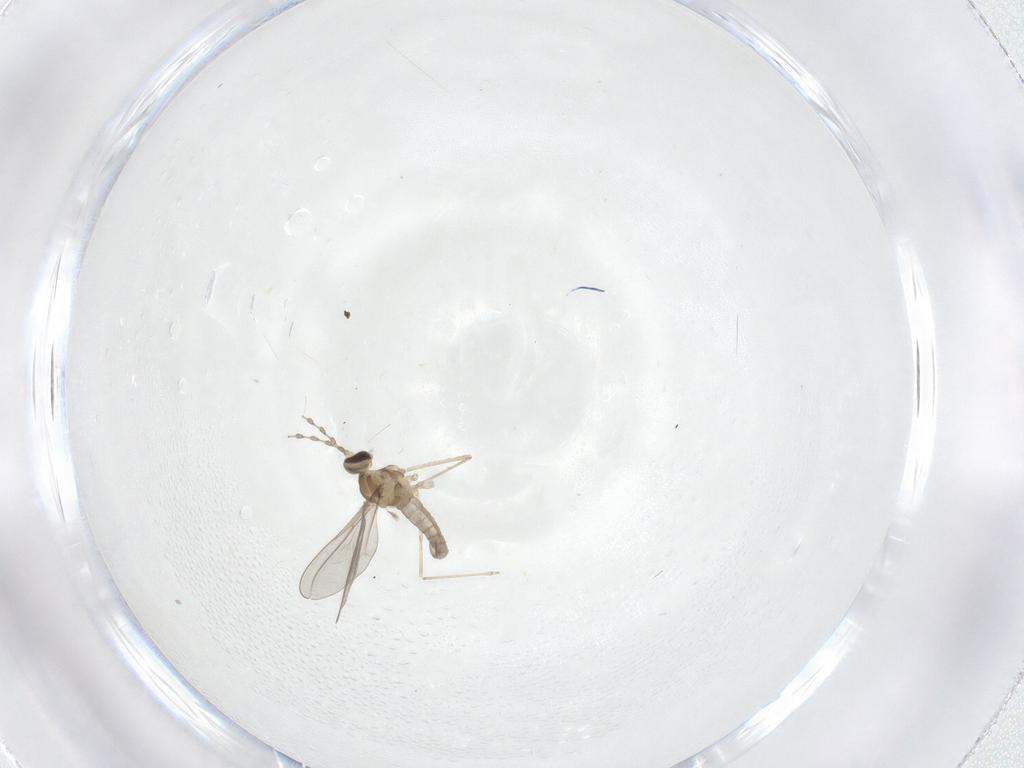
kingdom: Animalia
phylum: Arthropoda
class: Insecta
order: Diptera
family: Cecidomyiidae
